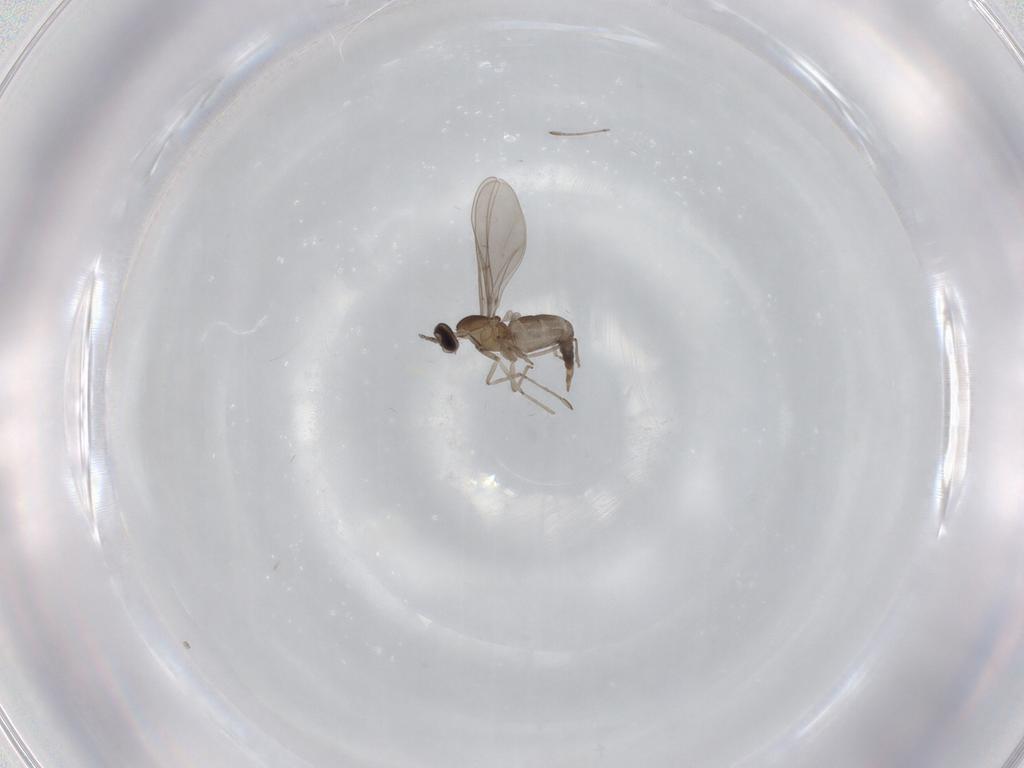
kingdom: Animalia
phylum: Arthropoda
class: Insecta
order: Diptera
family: Cecidomyiidae
